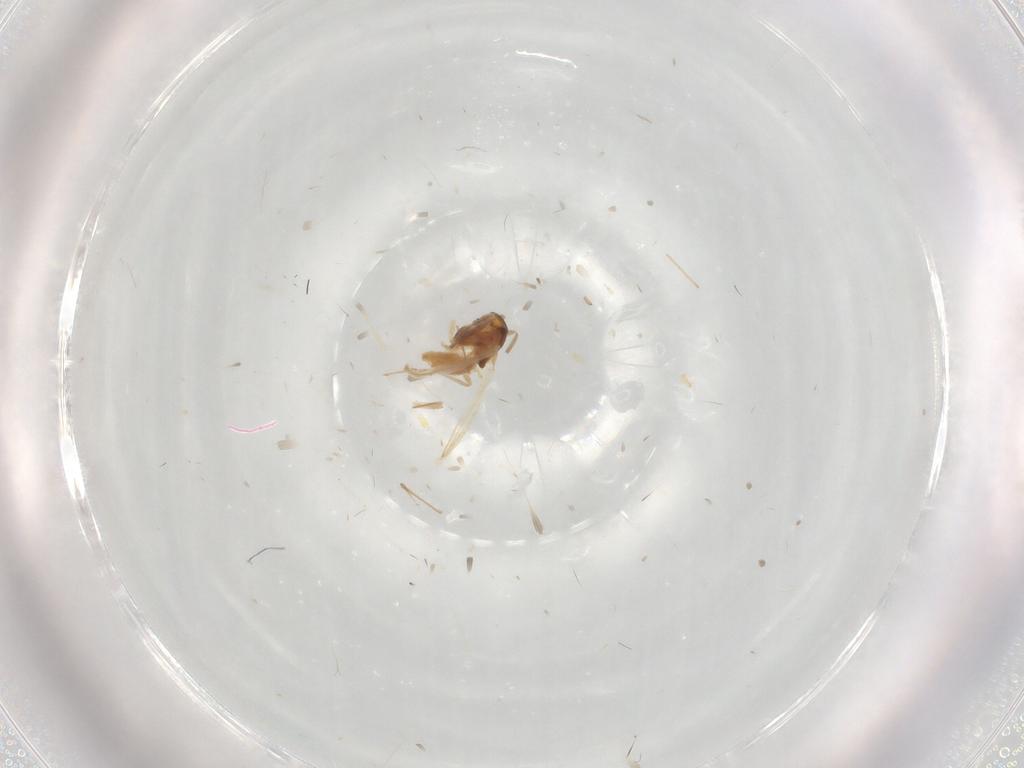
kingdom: Animalia
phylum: Arthropoda
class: Insecta
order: Diptera
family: Chironomidae
